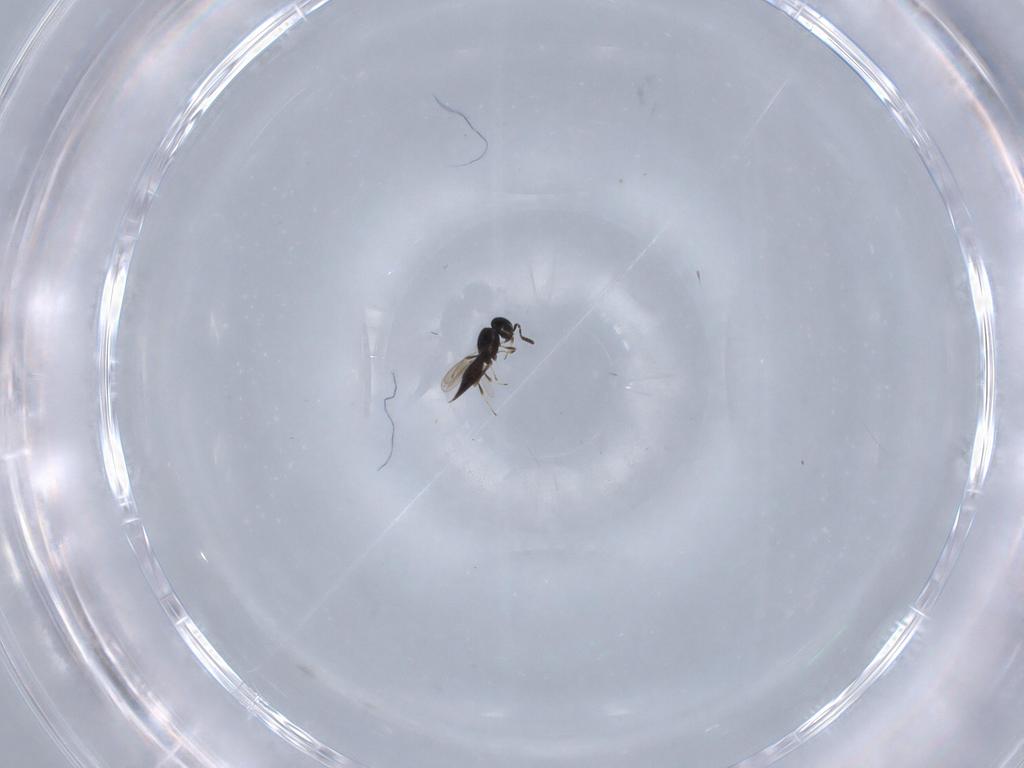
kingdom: Animalia
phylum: Arthropoda
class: Insecta
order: Hymenoptera
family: Scelionidae
